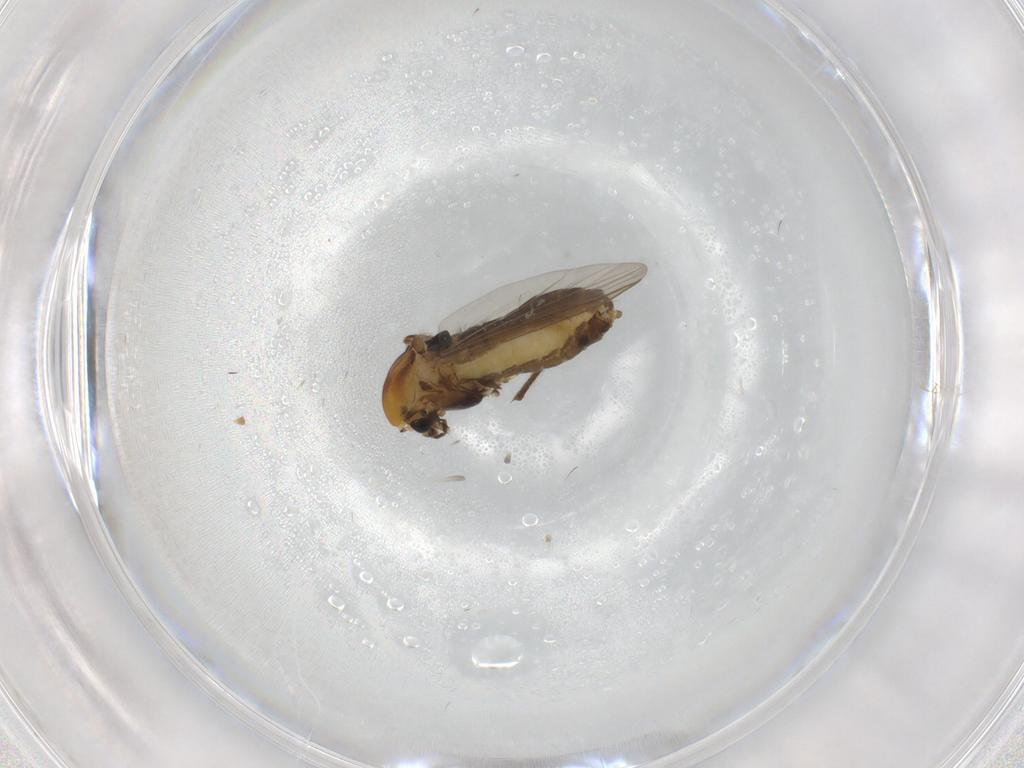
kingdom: Animalia
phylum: Arthropoda
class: Insecta
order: Diptera
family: Chironomidae
